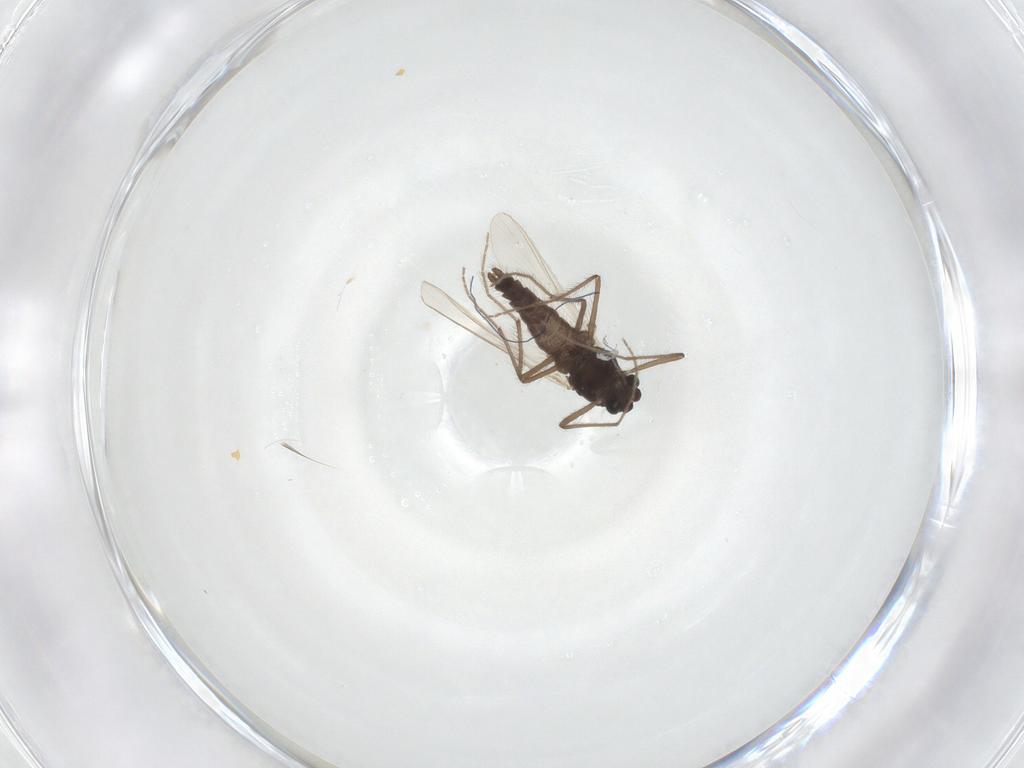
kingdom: Animalia
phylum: Arthropoda
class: Insecta
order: Diptera
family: Chironomidae
